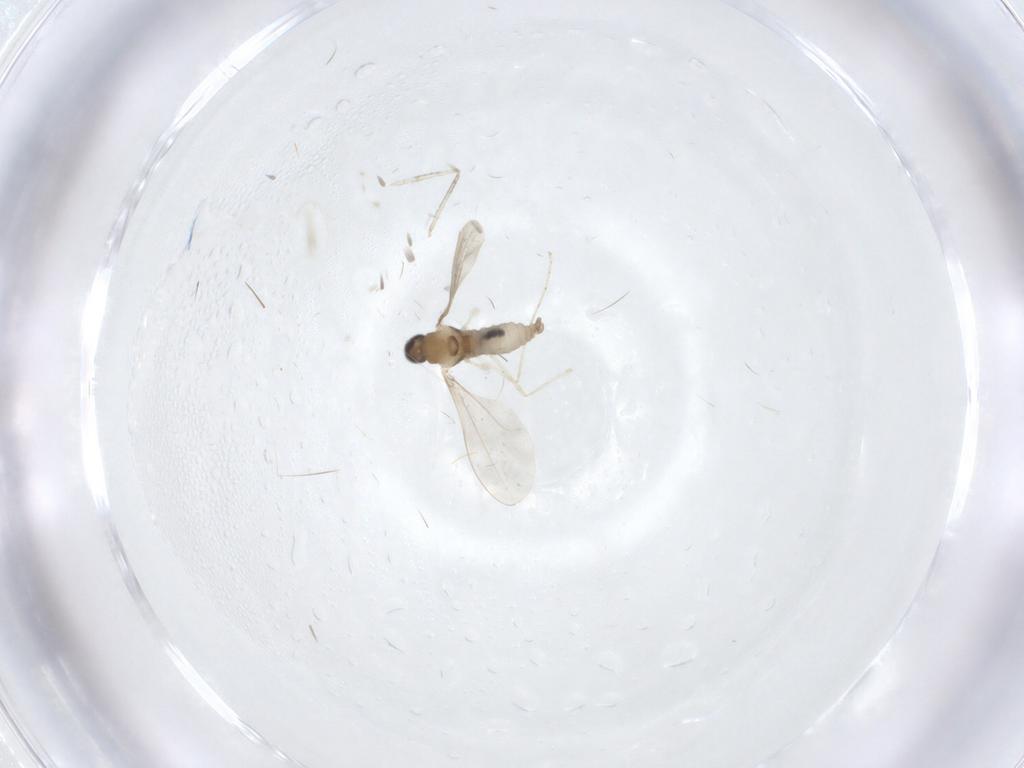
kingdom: Animalia
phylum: Arthropoda
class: Insecta
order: Diptera
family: Cecidomyiidae
